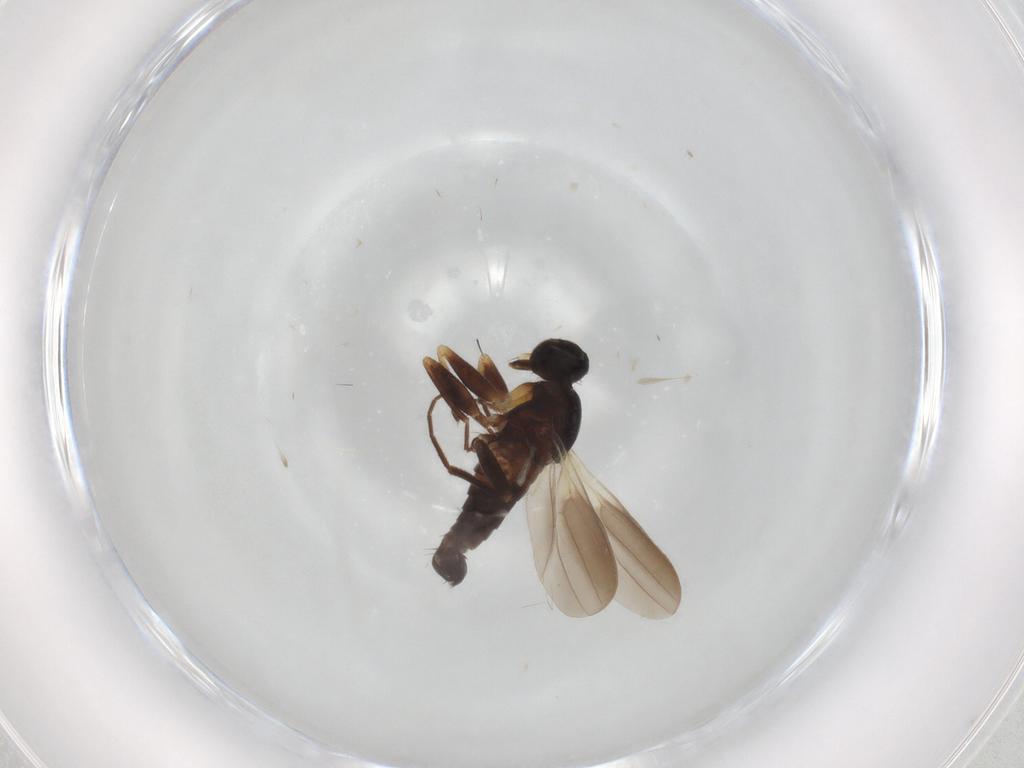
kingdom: Animalia
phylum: Arthropoda
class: Insecta
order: Diptera
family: Hybotidae
